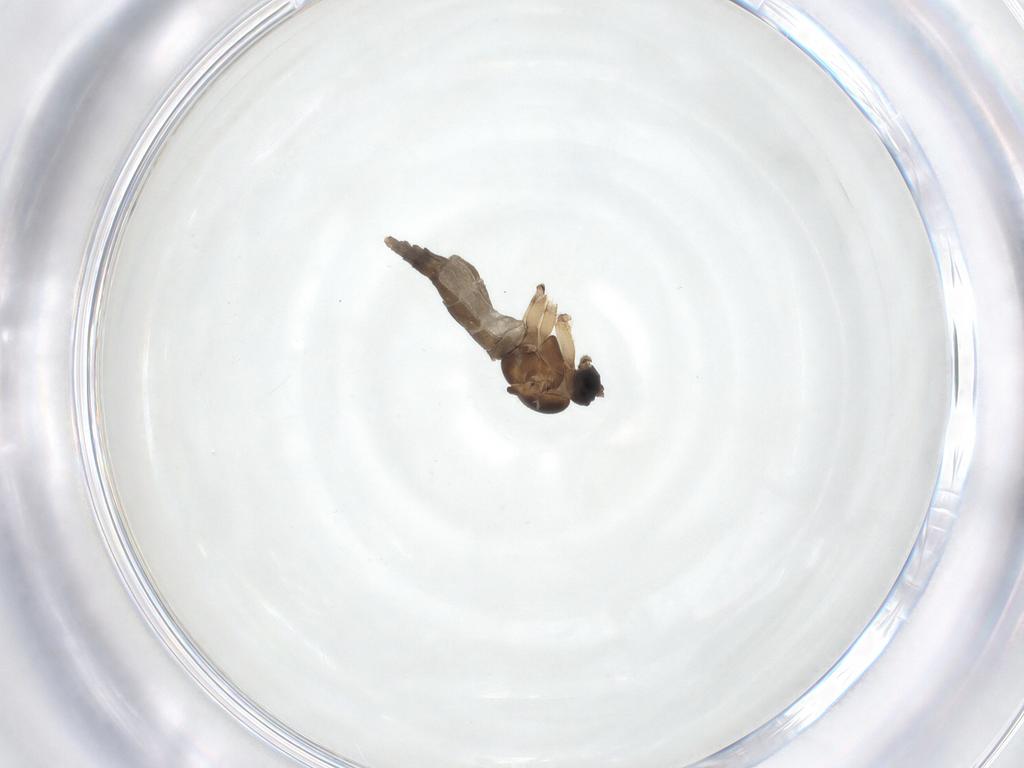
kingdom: Animalia
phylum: Arthropoda
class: Insecta
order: Diptera
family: Sciaridae
